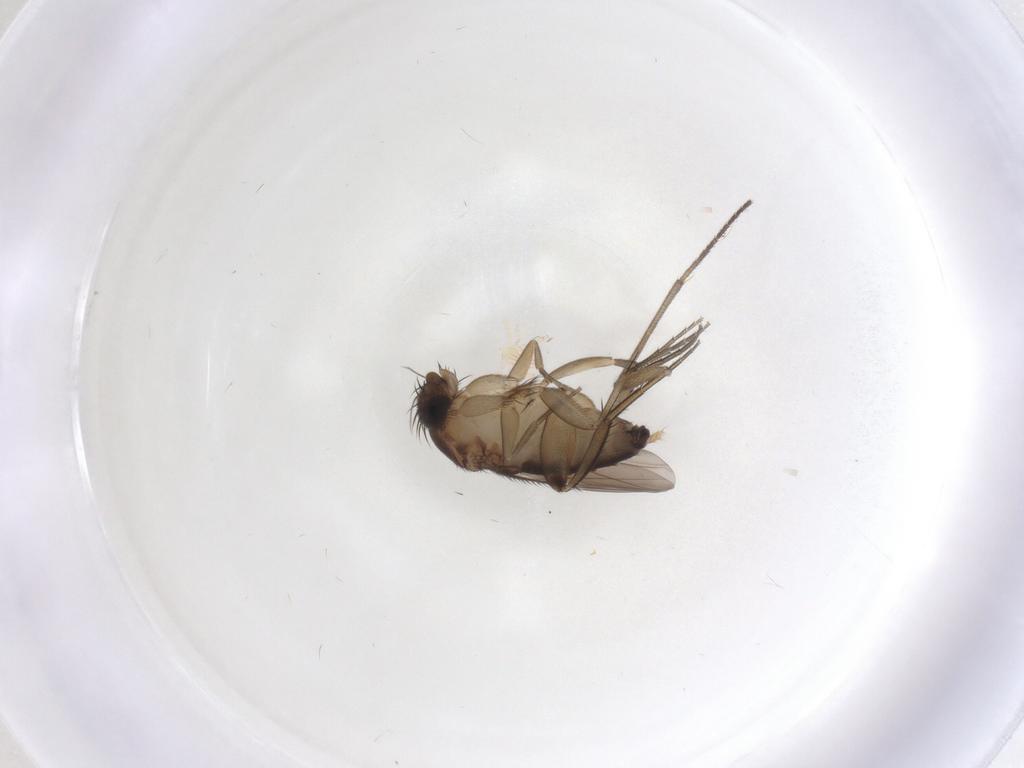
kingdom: Animalia
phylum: Arthropoda
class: Insecta
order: Diptera
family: Phoridae
